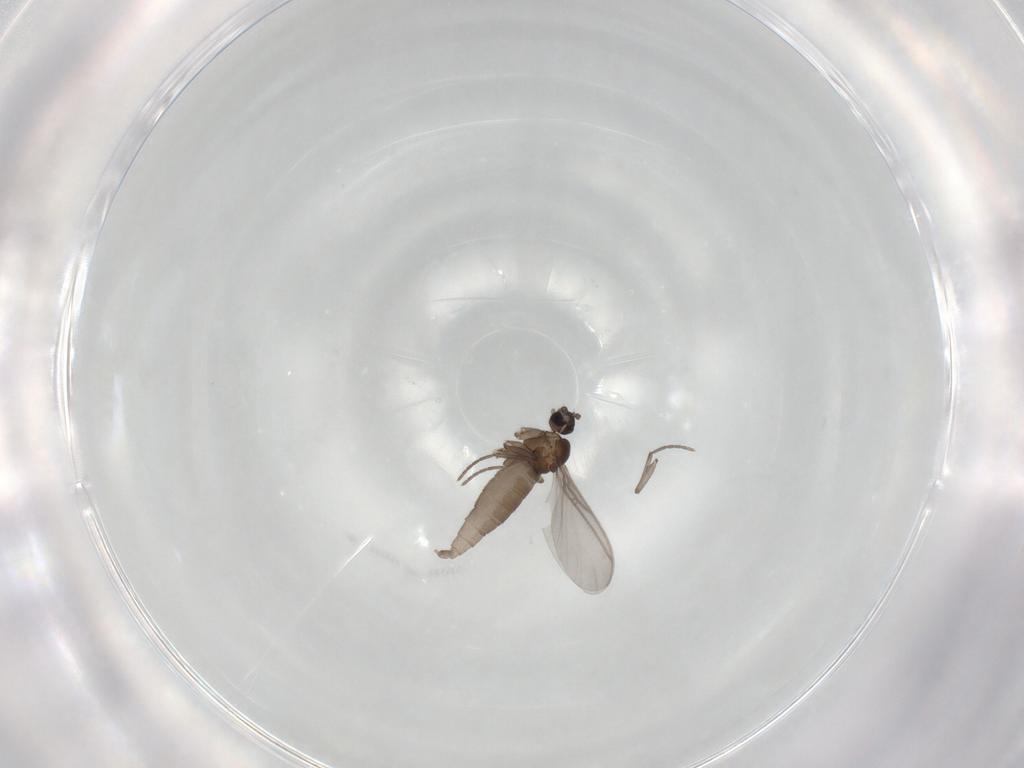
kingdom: Animalia
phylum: Arthropoda
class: Insecta
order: Diptera
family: Sciaridae
